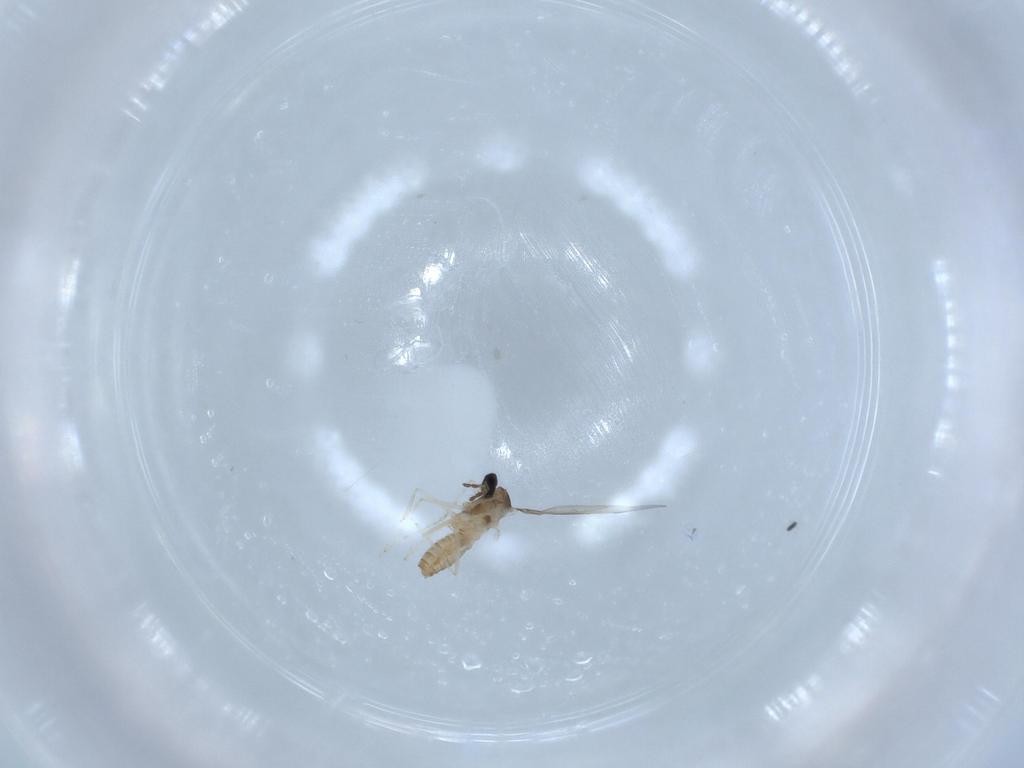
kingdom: Animalia
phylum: Arthropoda
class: Insecta
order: Diptera
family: Cecidomyiidae
